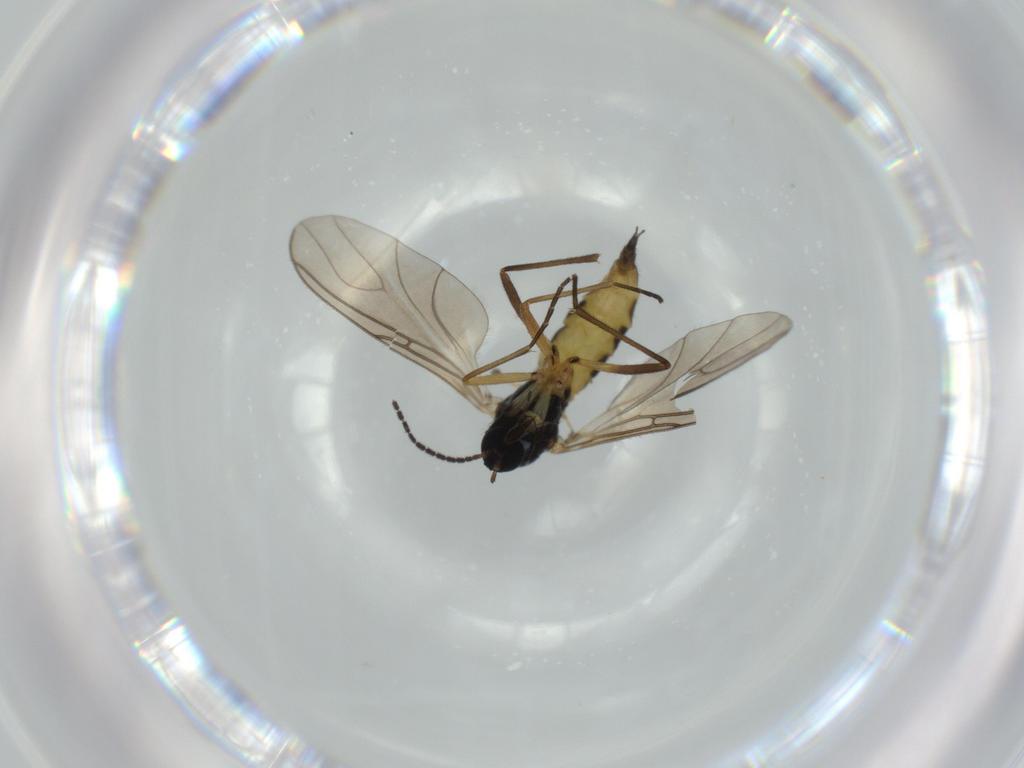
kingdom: Animalia
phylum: Arthropoda
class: Insecta
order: Diptera
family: Sciaridae
